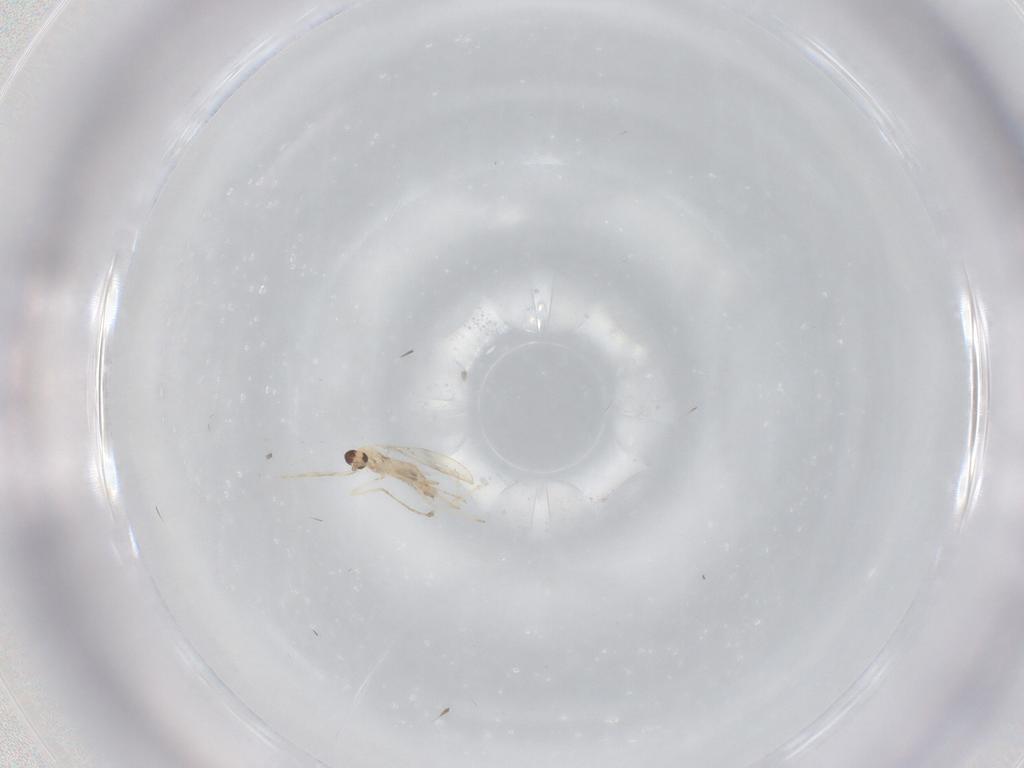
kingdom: Animalia
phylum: Arthropoda
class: Insecta
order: Diptera
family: Cecidomyiidae
